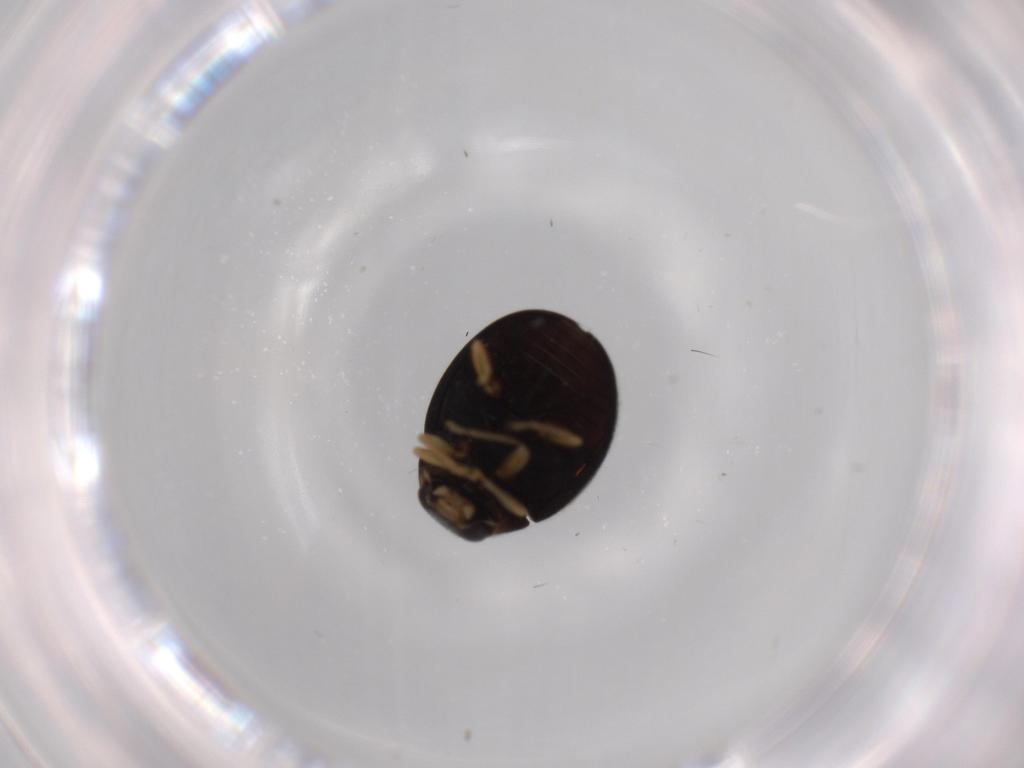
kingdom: Animalia
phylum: Arthropoda
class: Insecta
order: Coleoptera
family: Coccinellidae
